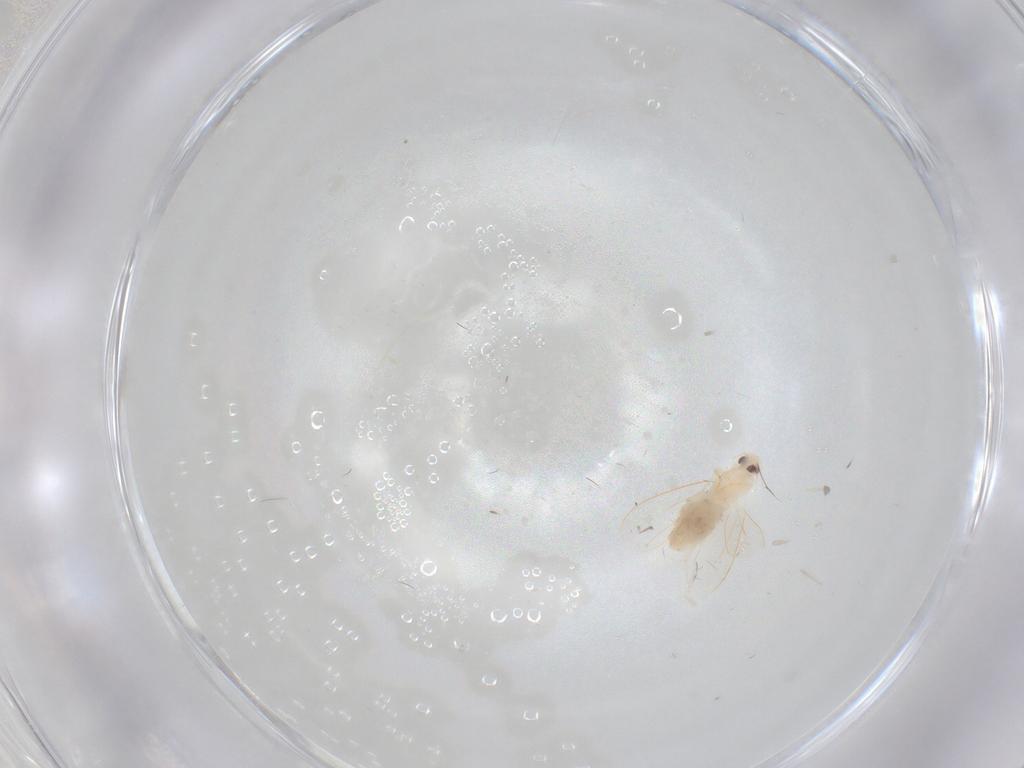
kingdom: Animalia
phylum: Arthropoda
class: Insecta
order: Hemiptera
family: Aleyrodidae
